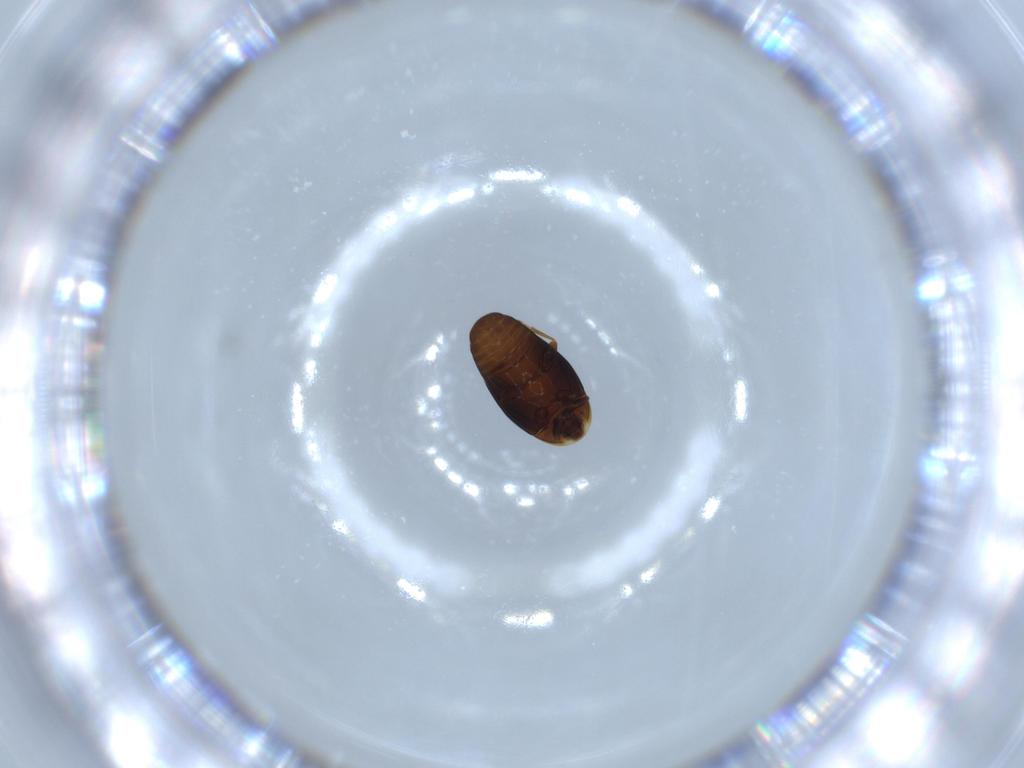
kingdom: Animalia
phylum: Arthropoda
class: Insecta
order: Coleoptera
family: Corylophidae
